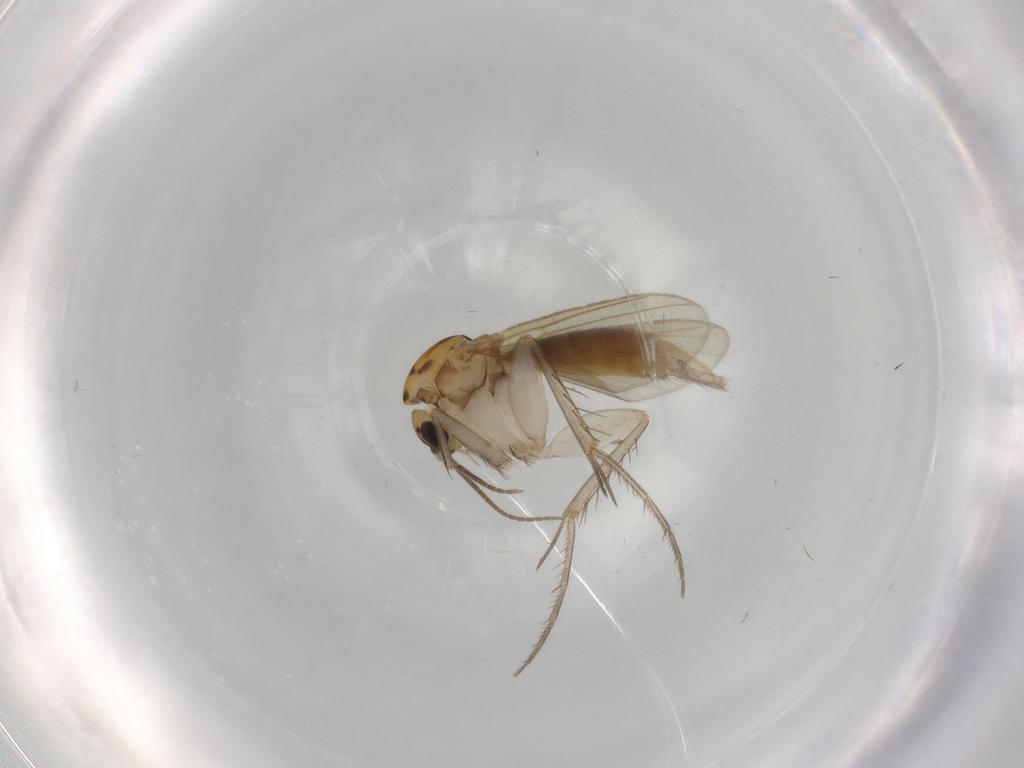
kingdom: Animalia
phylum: Arthropoda
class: Insecta
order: Diptera
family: Mycetophilidae
